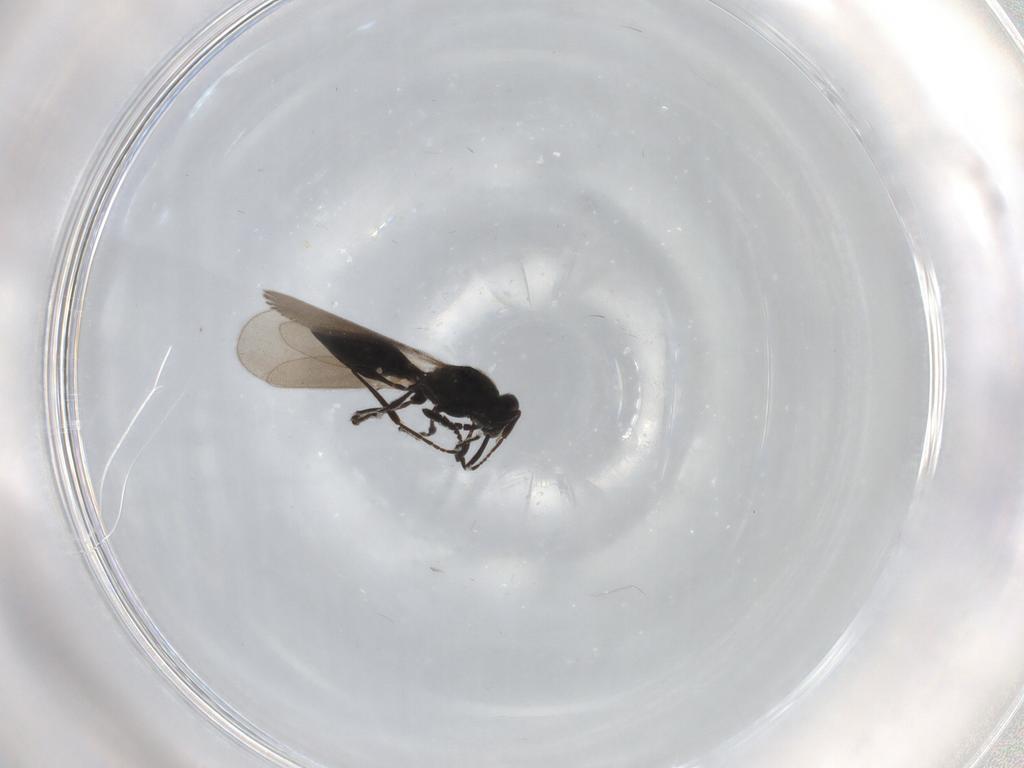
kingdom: Animalia
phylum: Arthropoda
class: Insecta
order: Hymenoptera
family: Platygastridae
